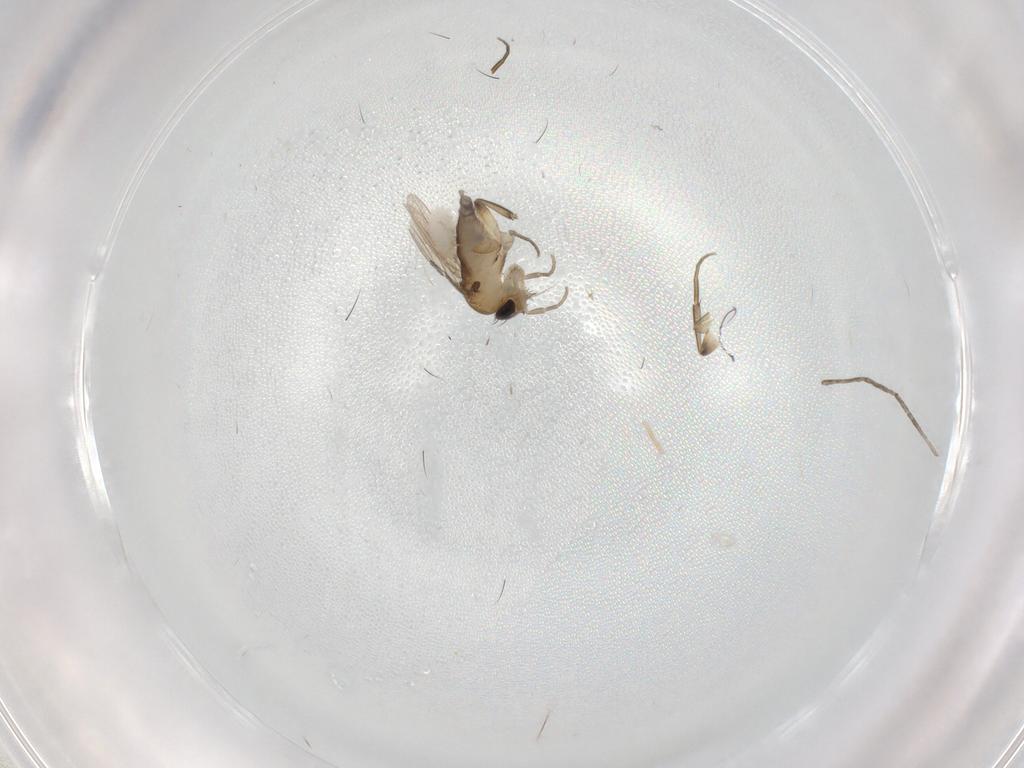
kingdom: Animalia
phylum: Arthropoda
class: Insecta
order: Diptera
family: Phoridae
